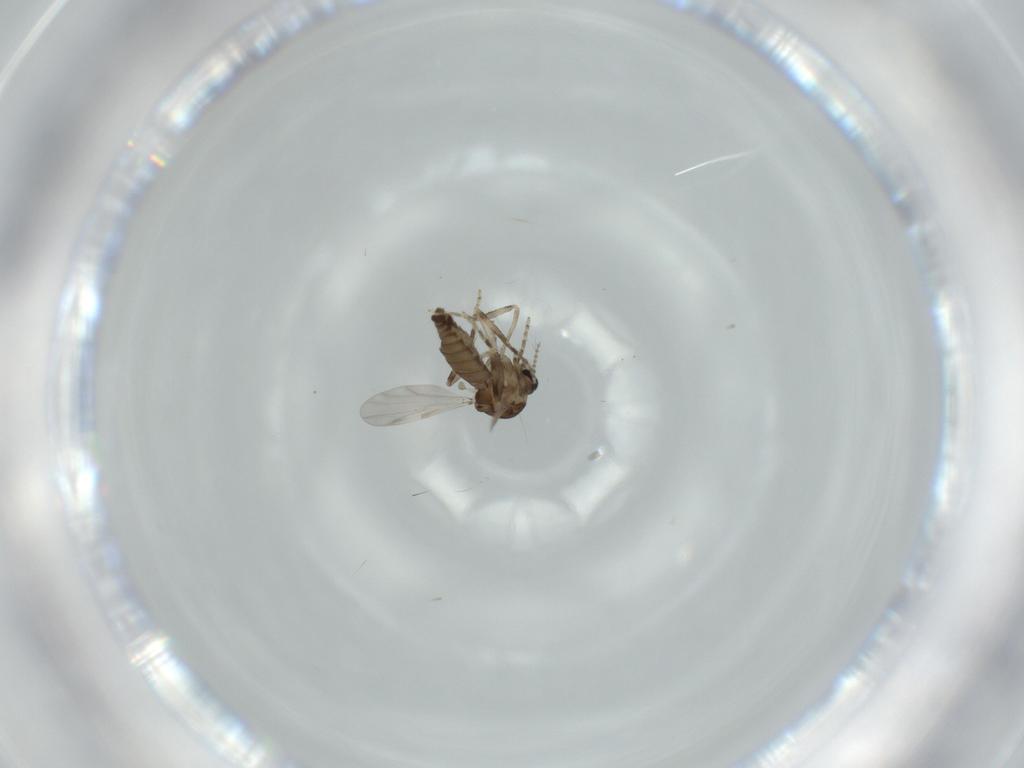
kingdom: Animalia
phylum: Arthropoda
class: Insecta
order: Diptera
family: Ceratopogonidae
